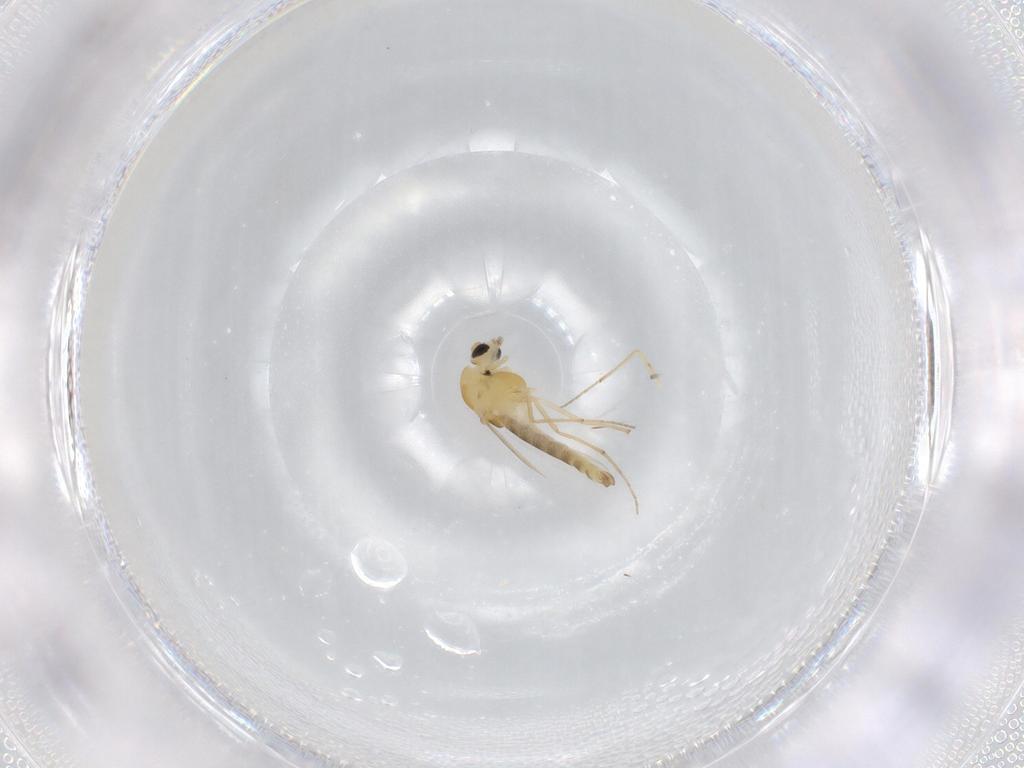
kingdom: Animalia
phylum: Arthropoda
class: Insecta
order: Diptera
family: Chironomidae
